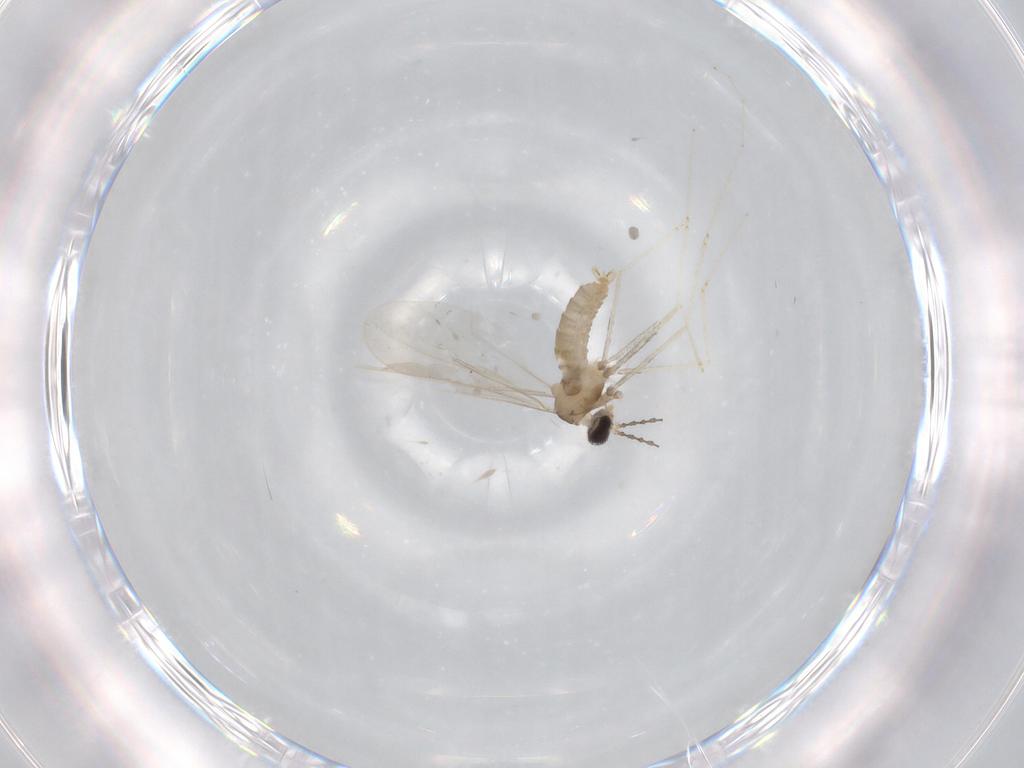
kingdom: Animalia
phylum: Arthropoda
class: Insecta
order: Diptera
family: Cecidomyiidae
